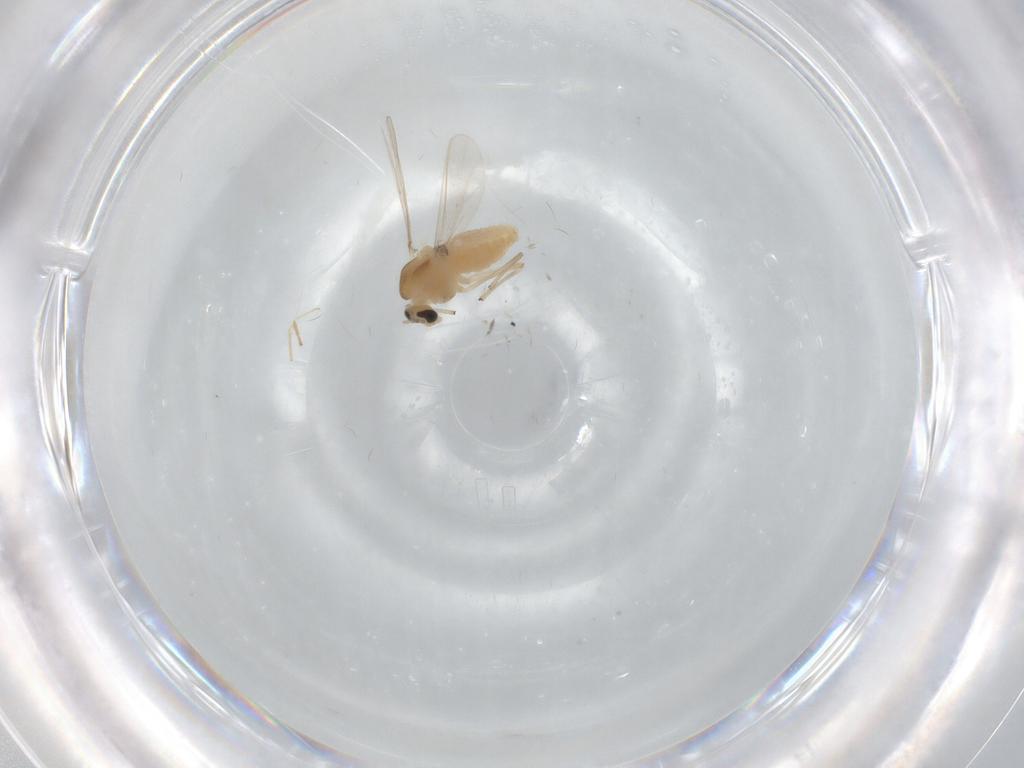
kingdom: Animalia
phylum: Arthropoda
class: Insecta
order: Diptera
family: Chironomidae
